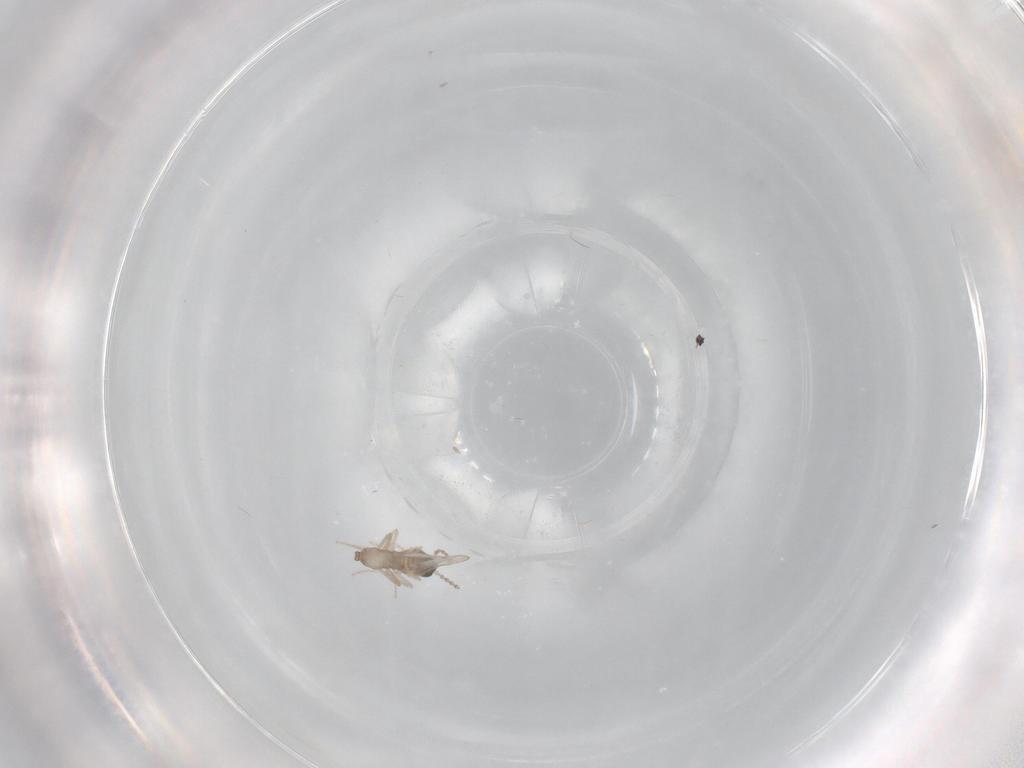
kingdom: Animalia
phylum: Arthropoda
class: Insecta
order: Diptera
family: Cecidomyiidae
